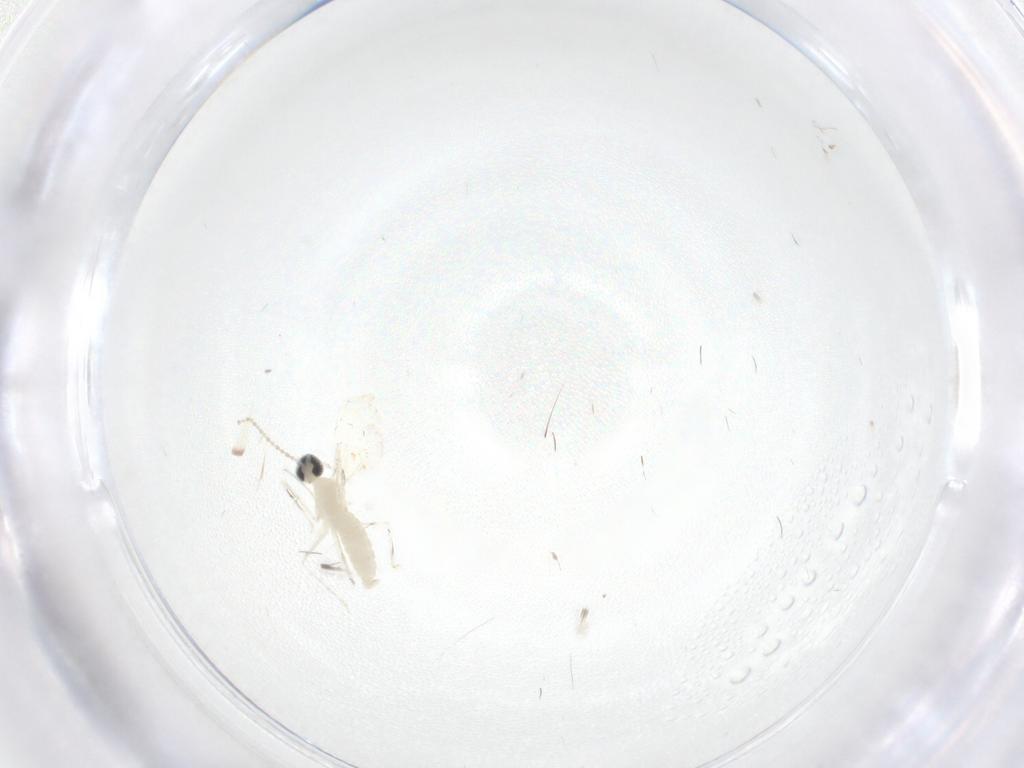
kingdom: Animalia
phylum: Arthropoda
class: Insecta
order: Diptera
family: Cecidomyiidae
